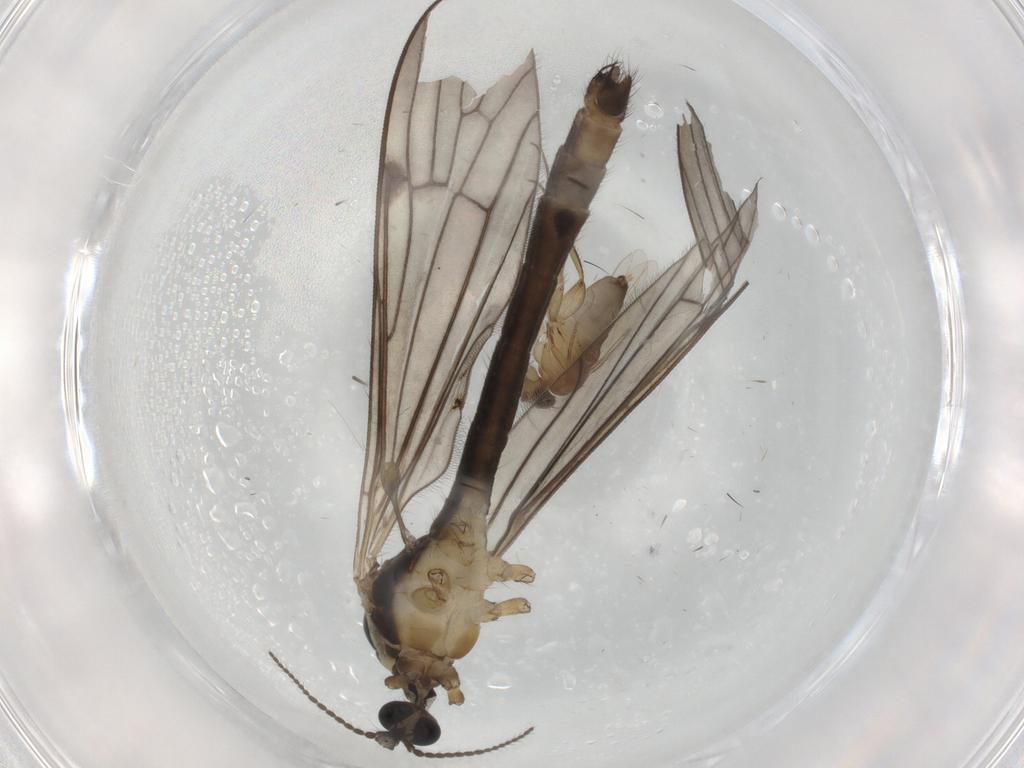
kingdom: Animalia
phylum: Arthropoda
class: Insecta
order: Diptera
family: Limoniidae
